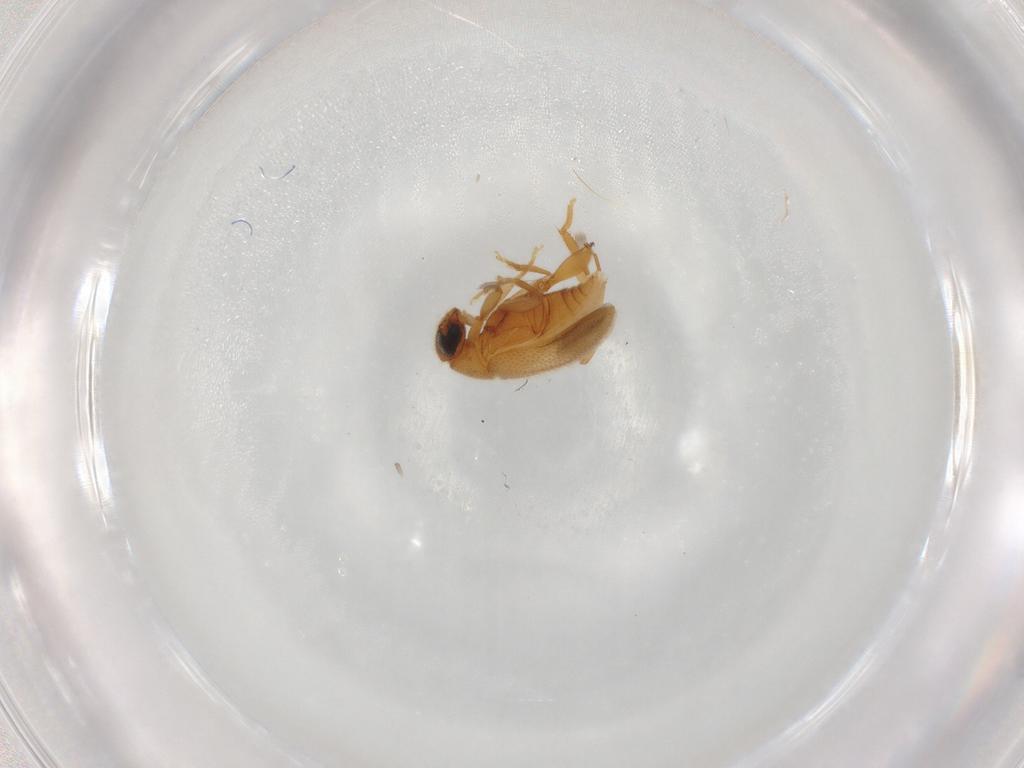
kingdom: Animalia
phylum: Arthropoda
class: Insecta
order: Coleoptera
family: Aderidae
